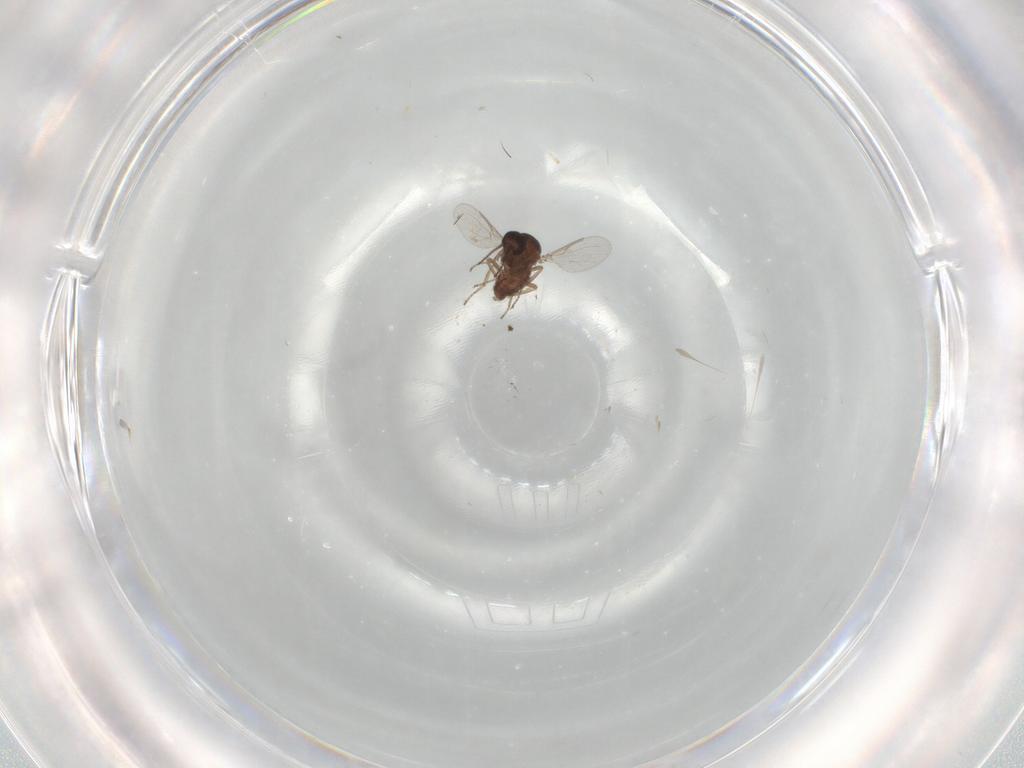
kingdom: Animalia
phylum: Arthropoda
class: Insecta
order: Diptera
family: Ceratopogonidae
